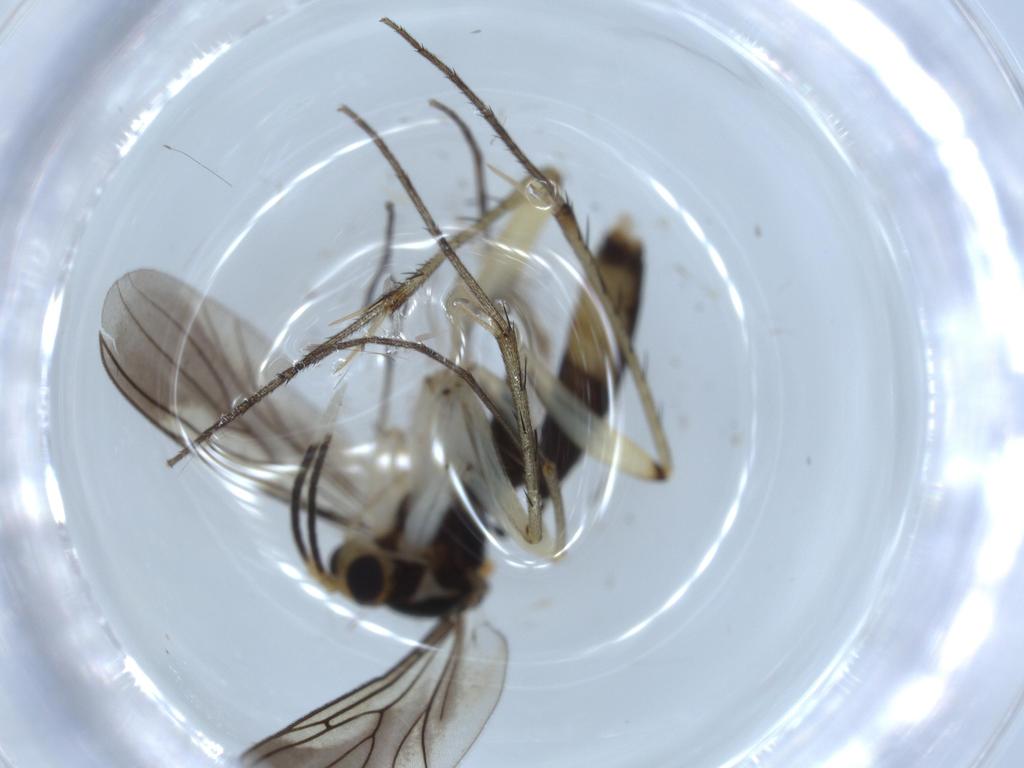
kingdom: Animalia
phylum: Arthropoda
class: Insecta
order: Diptera
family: Mycetophilidae
